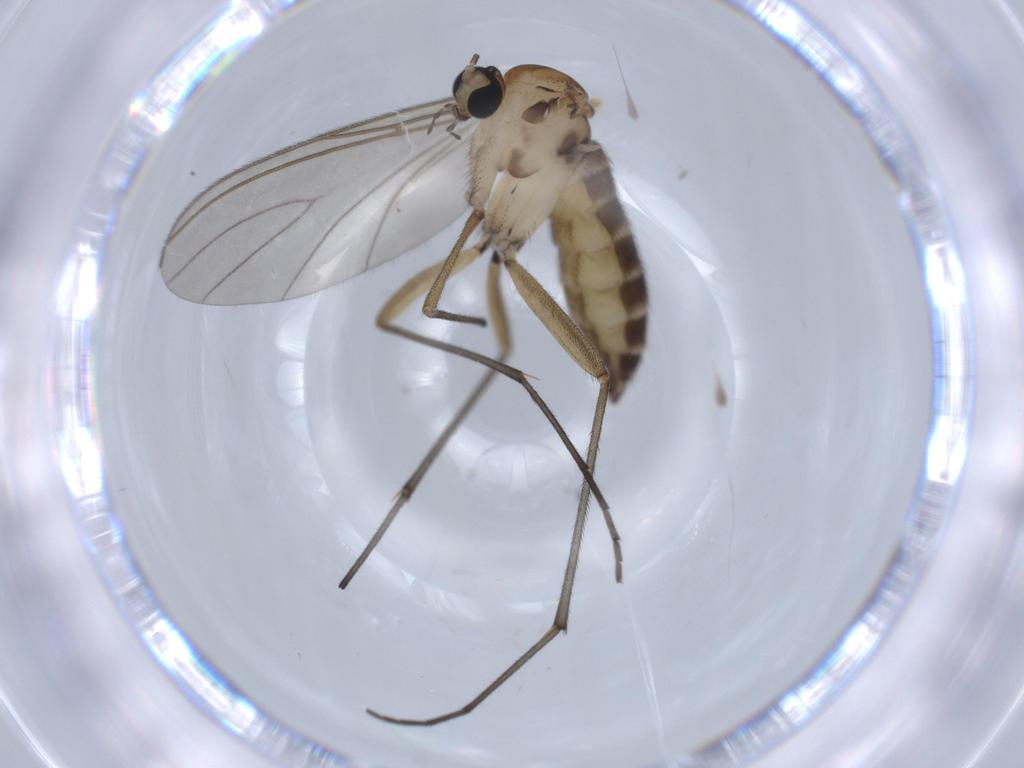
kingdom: Animalia
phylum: Arthropoda
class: Insecta
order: Diptera
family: Sciaridae
